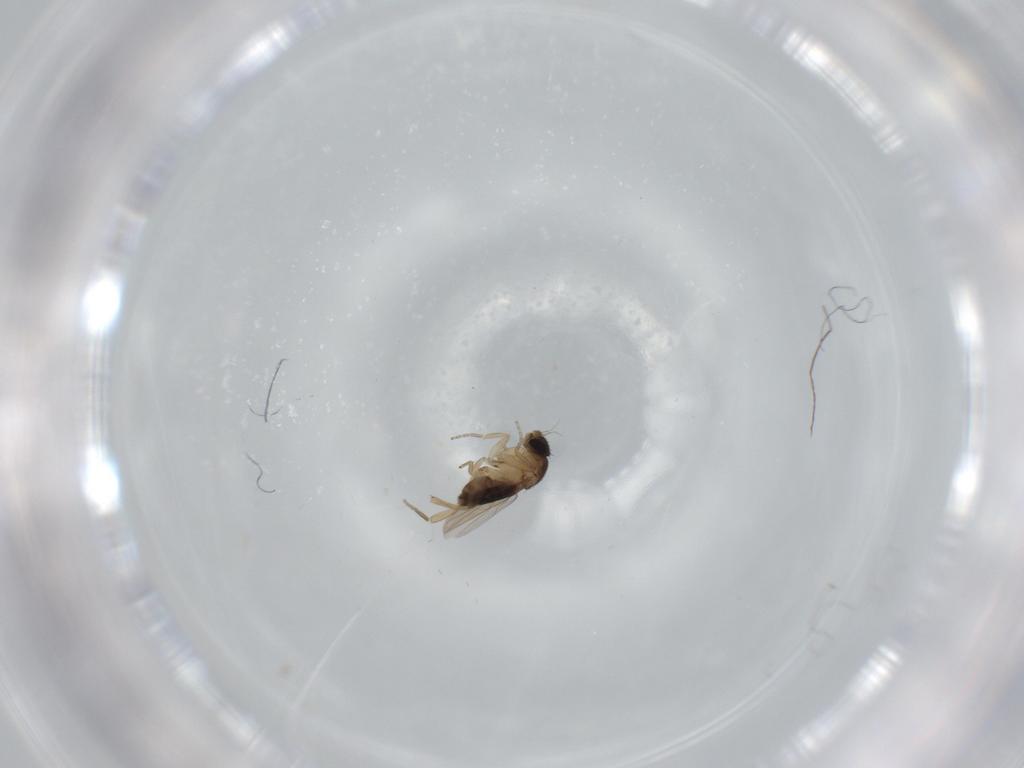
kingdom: Animalia
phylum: Arthropoda
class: Insecta
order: Diptera
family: Phoridae
